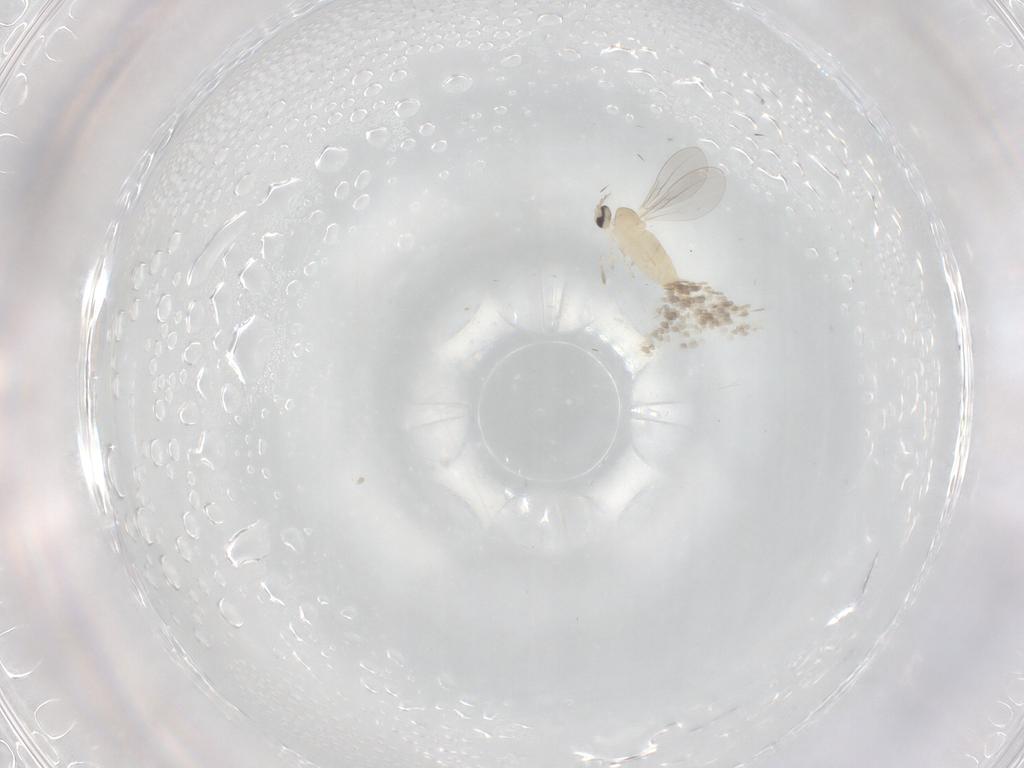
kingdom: Animalia
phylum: Arthropoda
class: Insecta
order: Diptera
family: Cecidomyiidae
